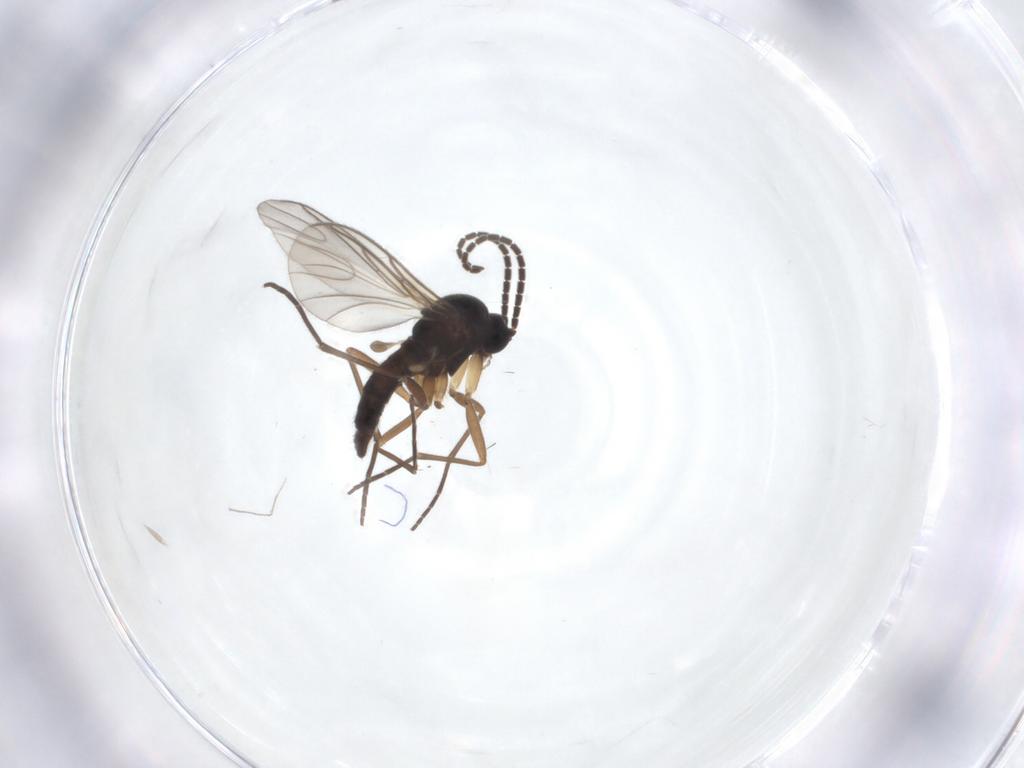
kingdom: Animalia
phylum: Arthropoda
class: Insecta
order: Diptera
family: Sciaridae
